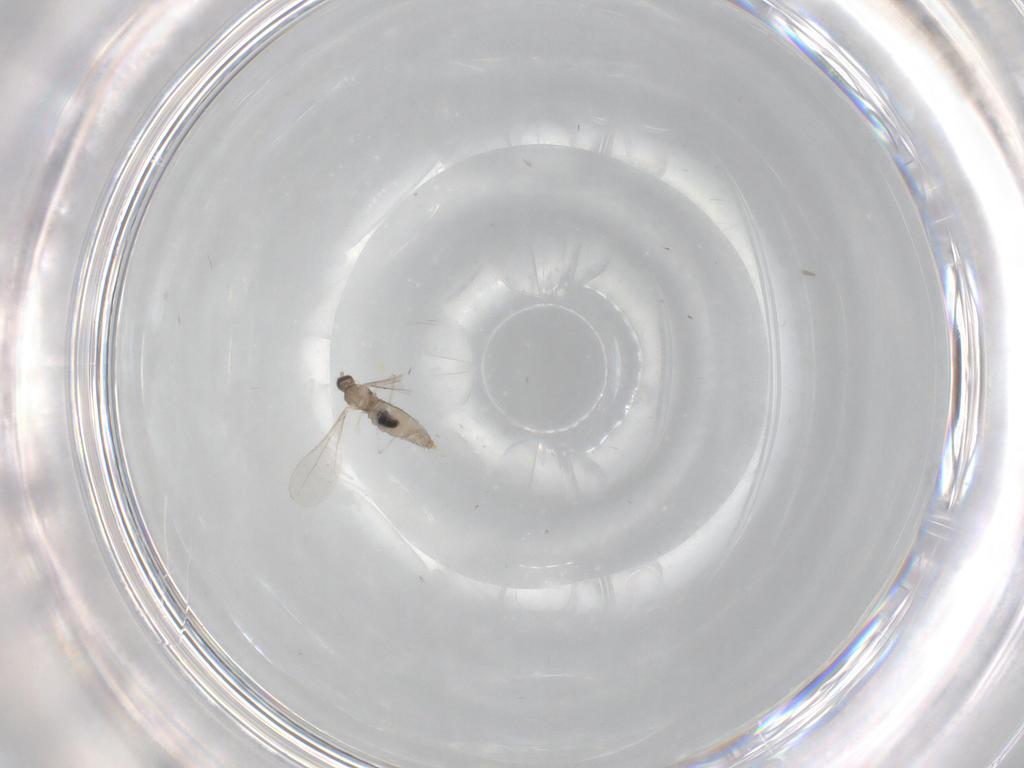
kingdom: Animalia
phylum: Arthropoda
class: Insecta
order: Diptera
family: Cecidomyiidae
